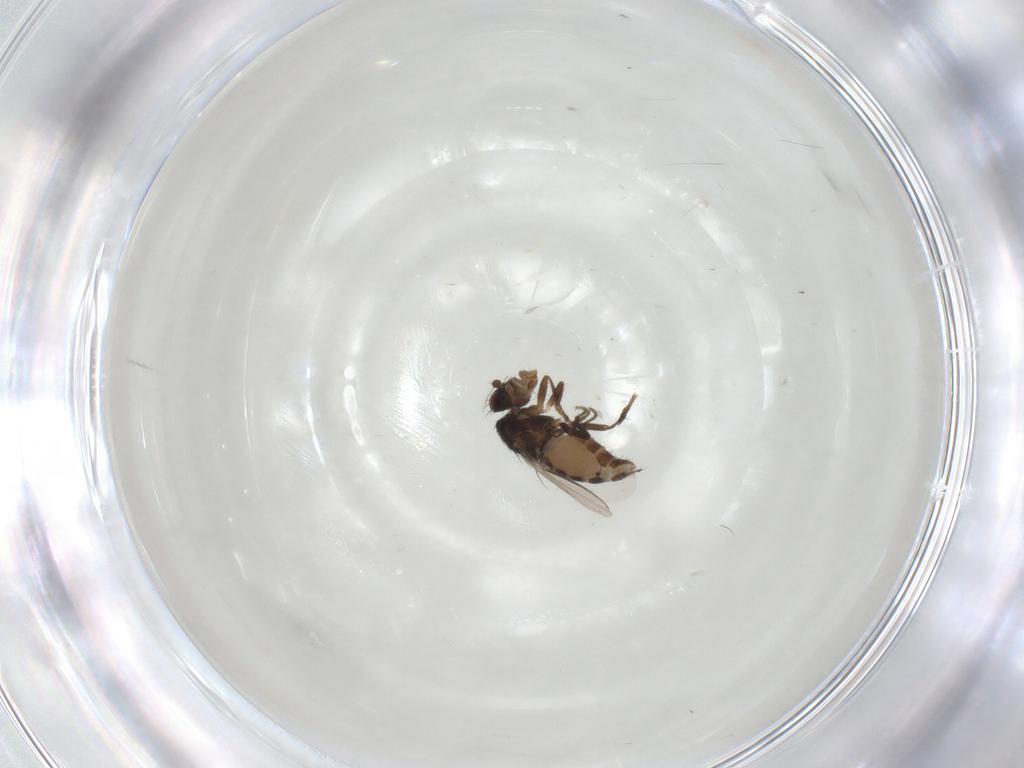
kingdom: Animalia
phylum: Arthropoda
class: Insecta
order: Diptera
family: Sphaeroceridae
